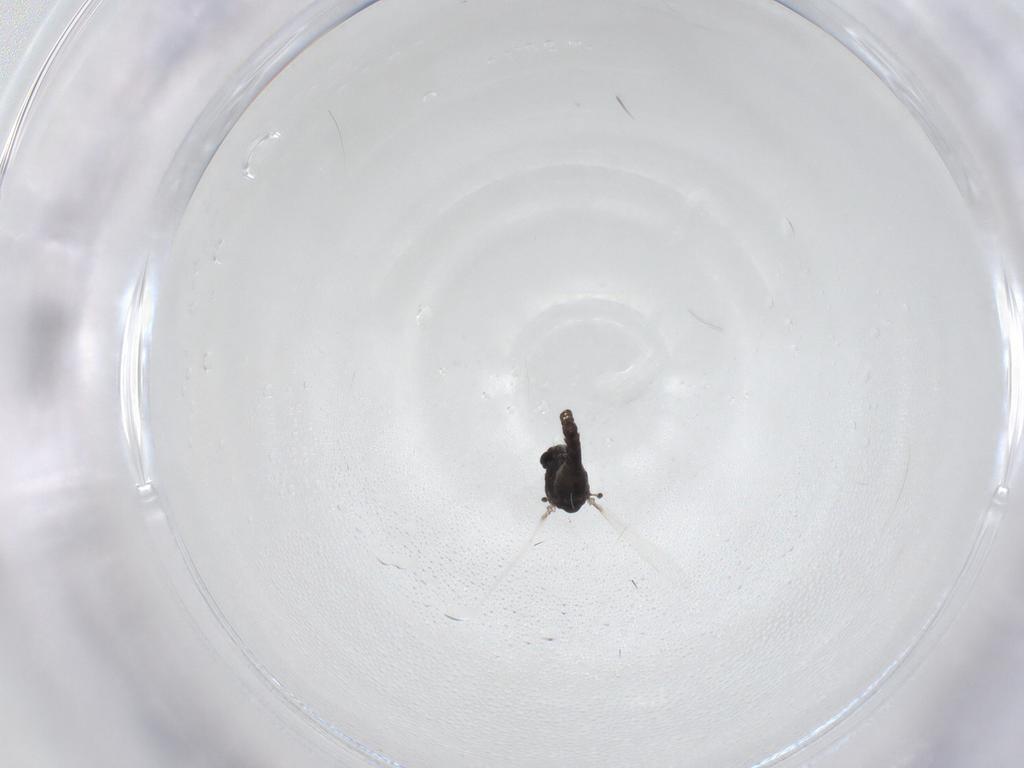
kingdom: Animalia
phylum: Arthropoda
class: Insecta
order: Diptera
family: Chironomidae
